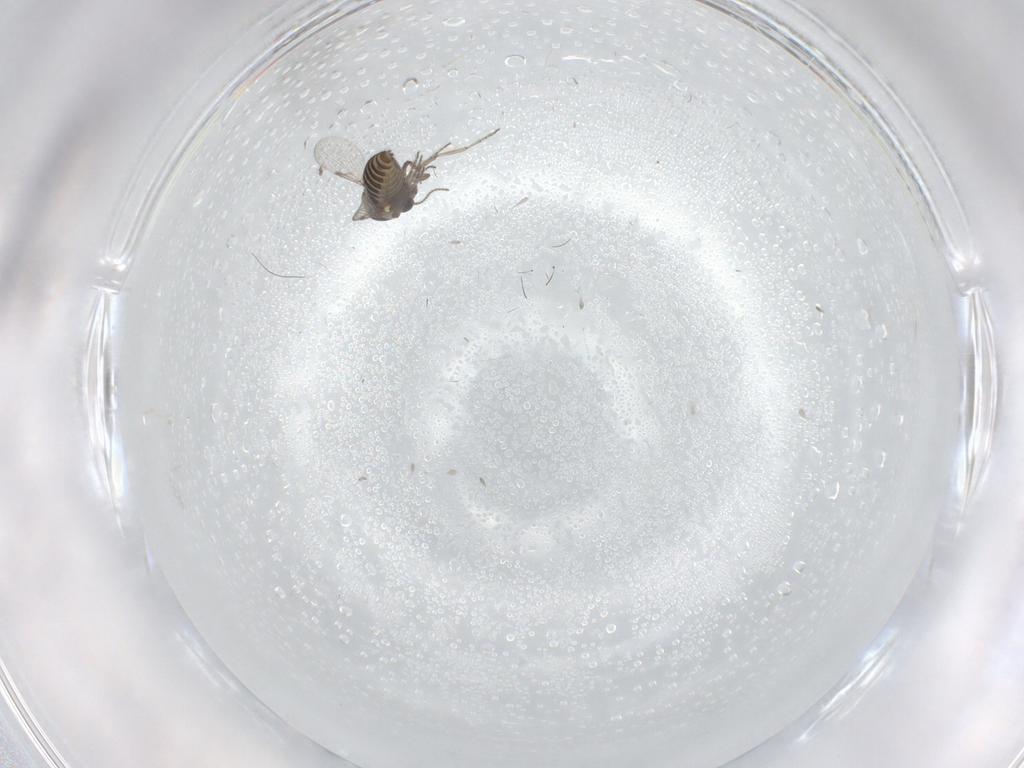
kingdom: Animalia
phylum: Arthropoda
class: Insecta
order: Diptera
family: Ceratopogonidae
